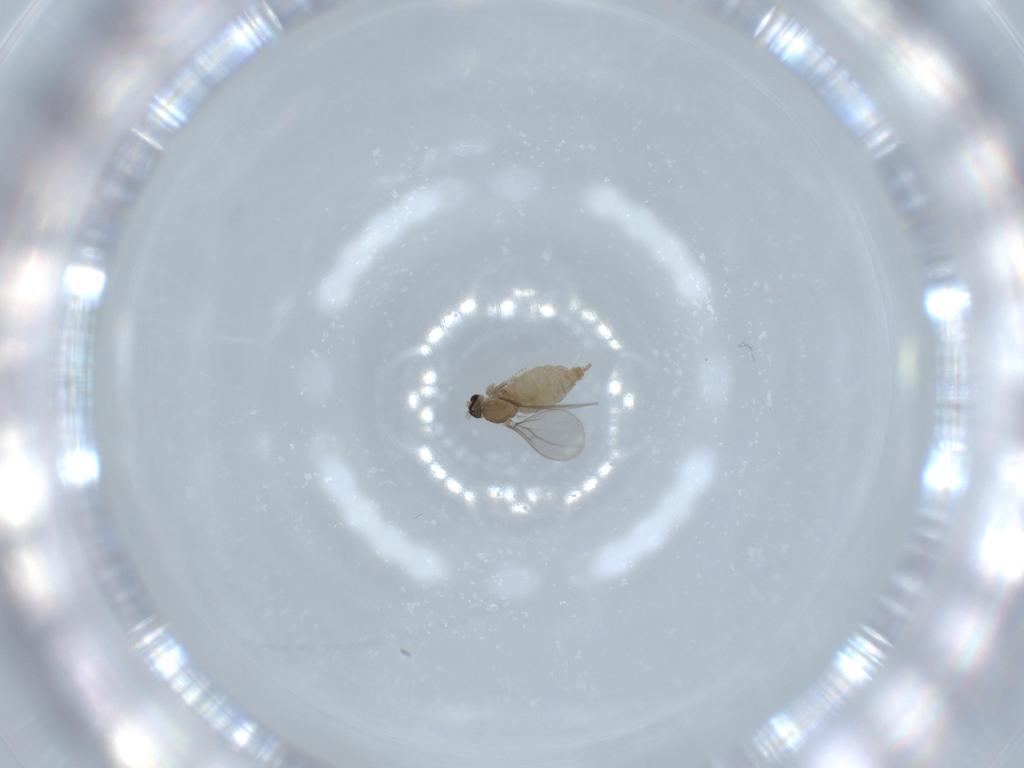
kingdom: Animalia
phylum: Arthropoda
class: Insecta
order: Diptera
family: Cecidomyiidae
